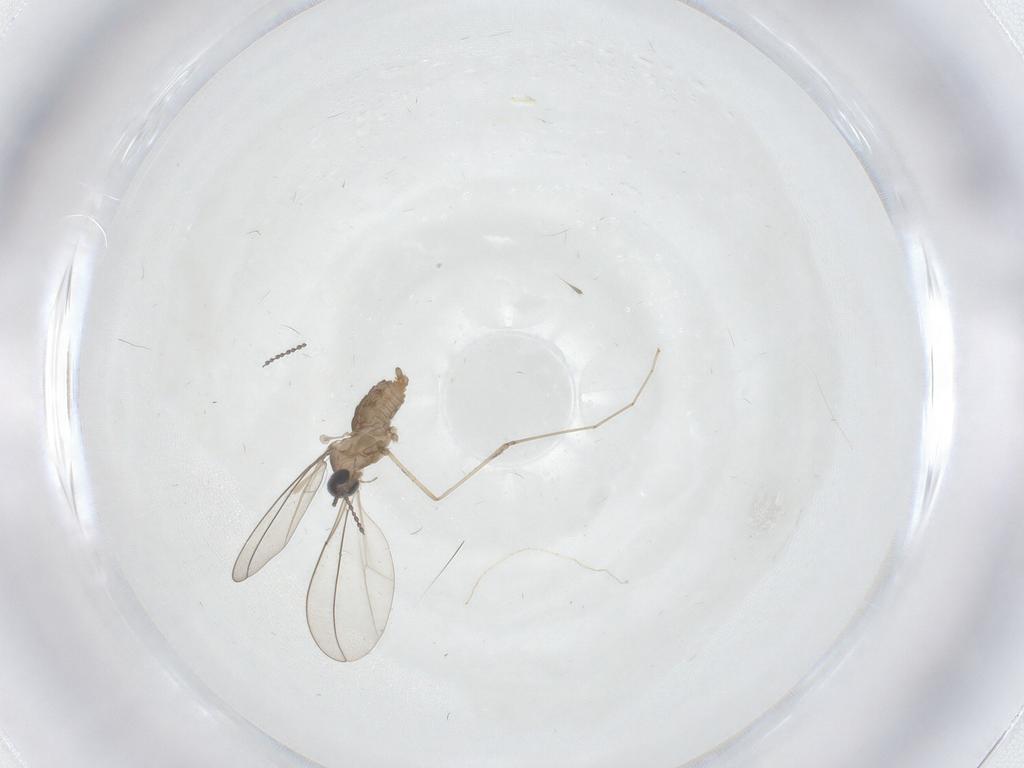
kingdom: Animalia
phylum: Arthropoda
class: Insecta
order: Diptera
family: Cecidomyiidae
